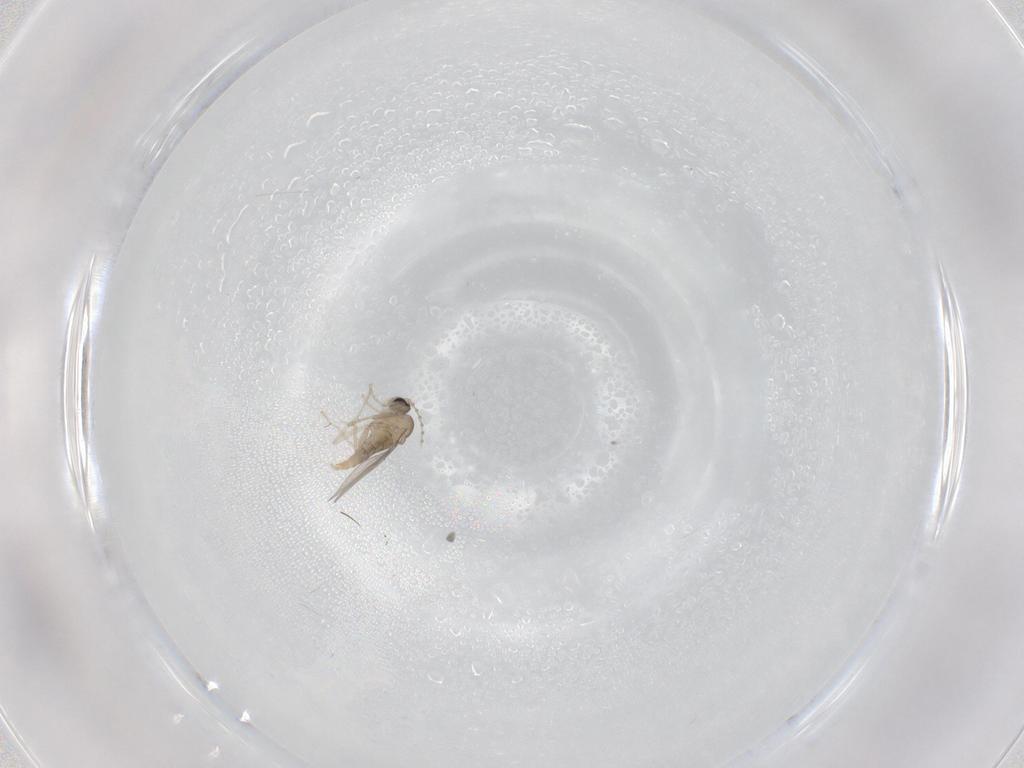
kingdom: Animalia
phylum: Arthropoda
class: Insecta
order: Diptera
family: Cecidomyiidae
